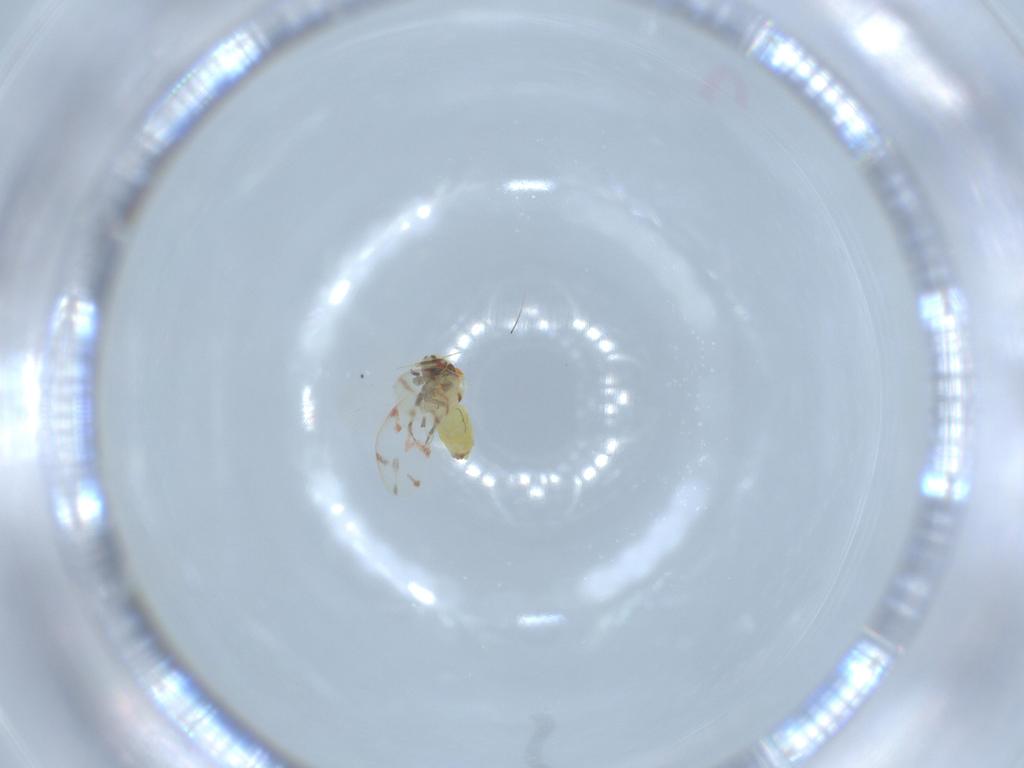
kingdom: Animalia
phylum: Arthropoda
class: Insecta
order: Hemiptera
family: Aleyrodidae
